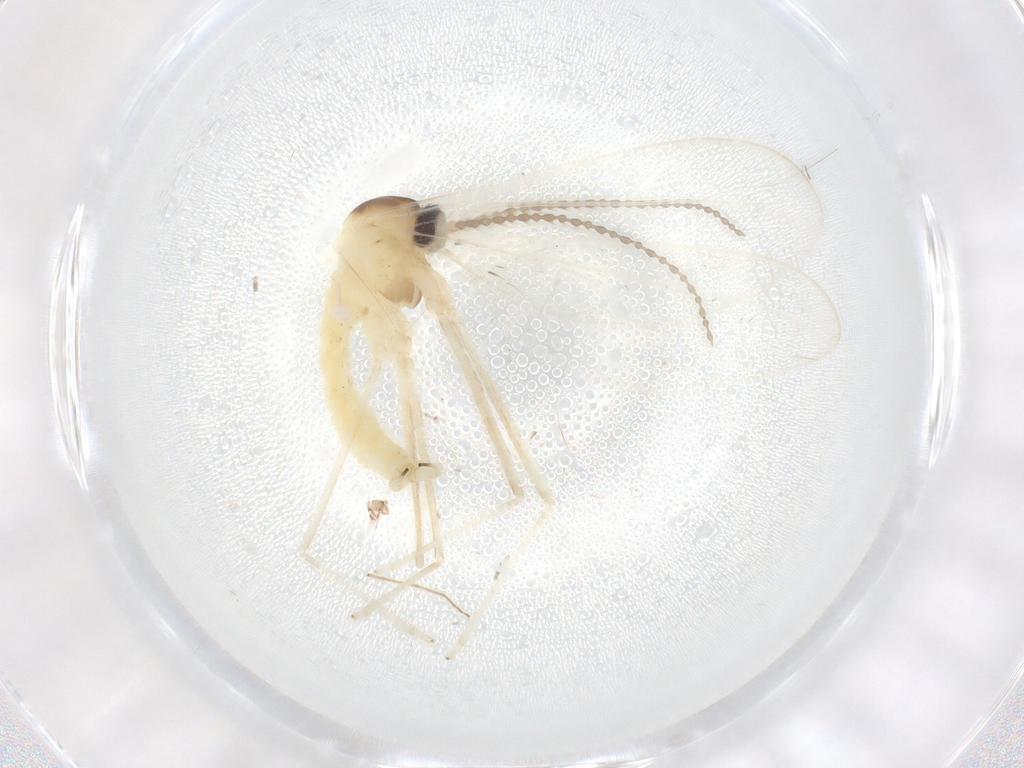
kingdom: Animalia
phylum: Arthropoda
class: Insecta
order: Diptera
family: Cecidomyiidae
